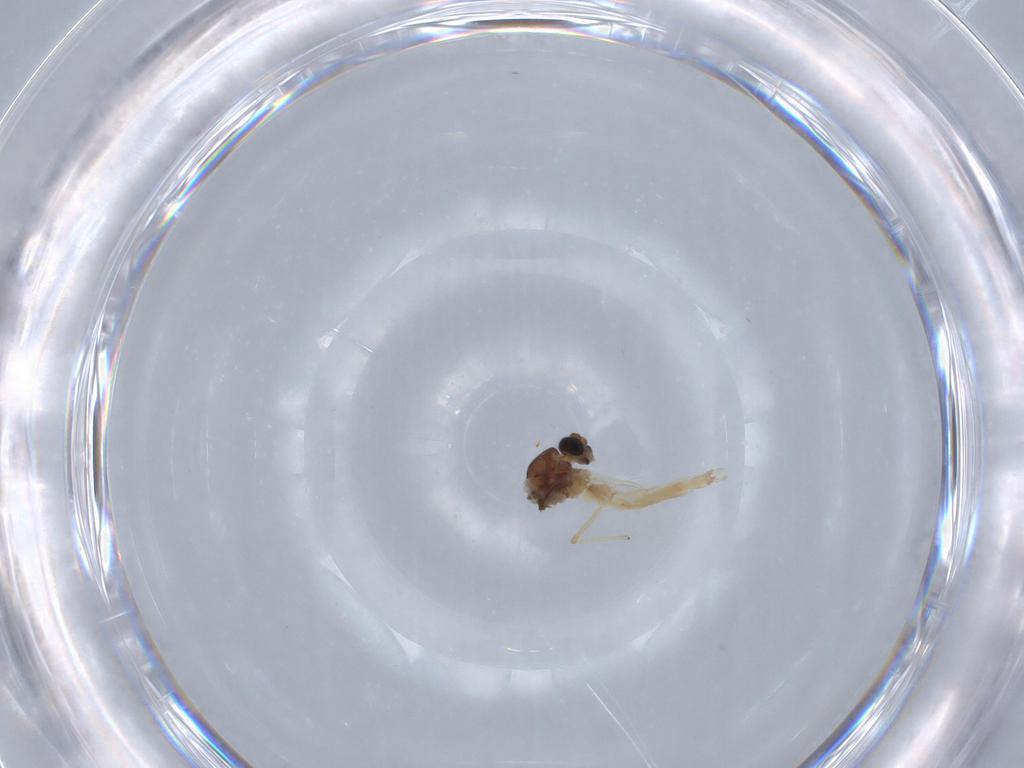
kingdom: Animalia
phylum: Arthropoda
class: Insecta
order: Diptera
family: Chironomidae
